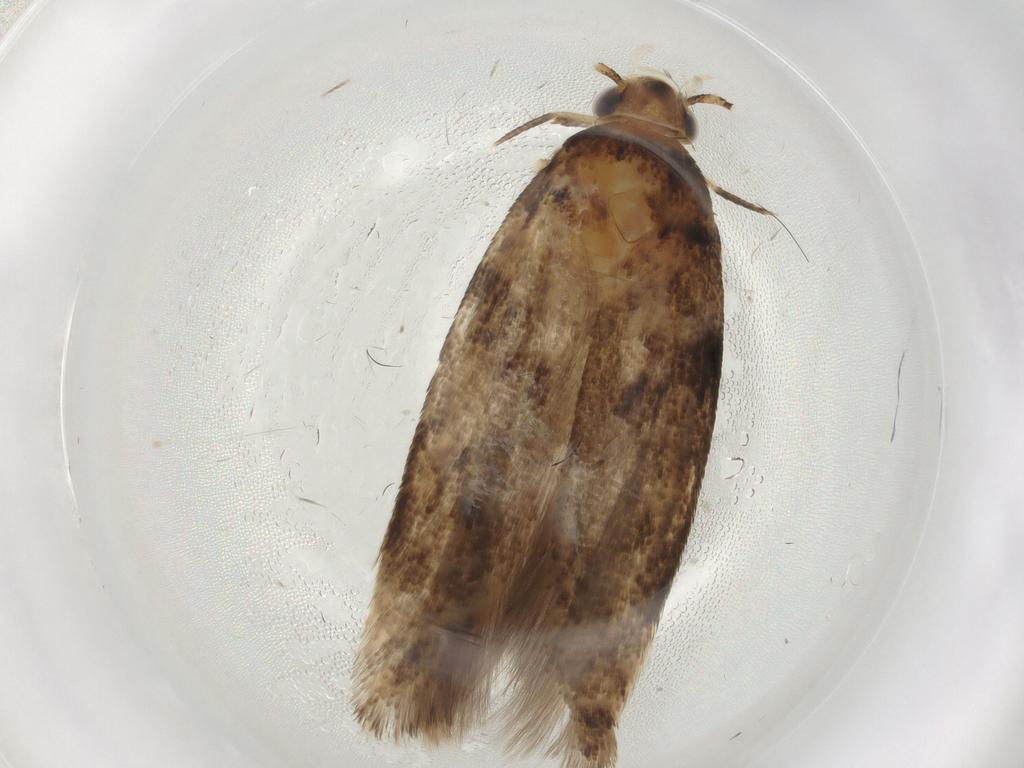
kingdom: Animalia
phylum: Arthropoda
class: Insecta
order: Lepidoptera
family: Gelechiidae
